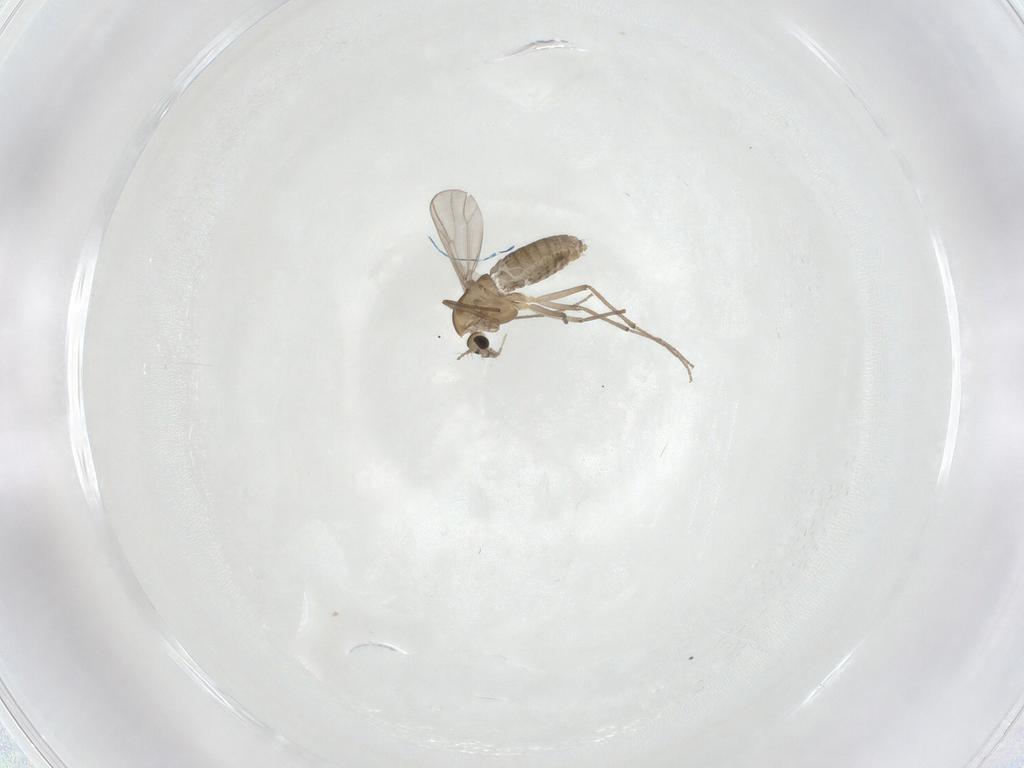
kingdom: Animalia
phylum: Arthropoda
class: Insecta
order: Diptera
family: Chironomidae
